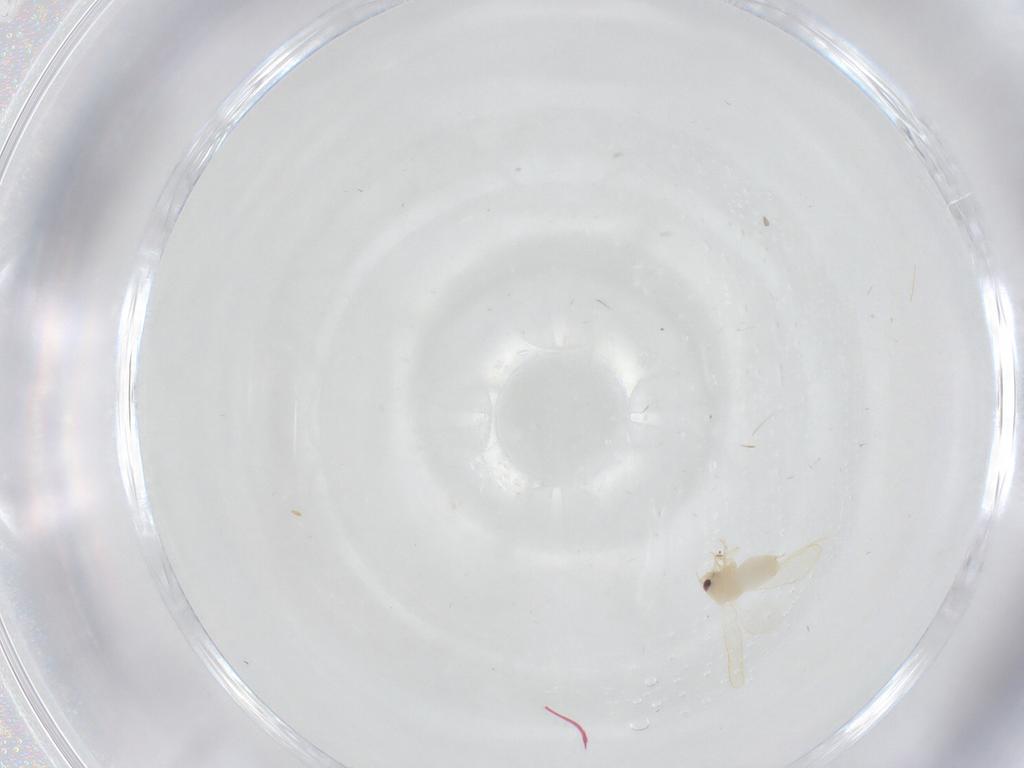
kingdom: Animalia
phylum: Arthropoda
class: Insecta
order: Hemiptera
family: Aleyrodidae
